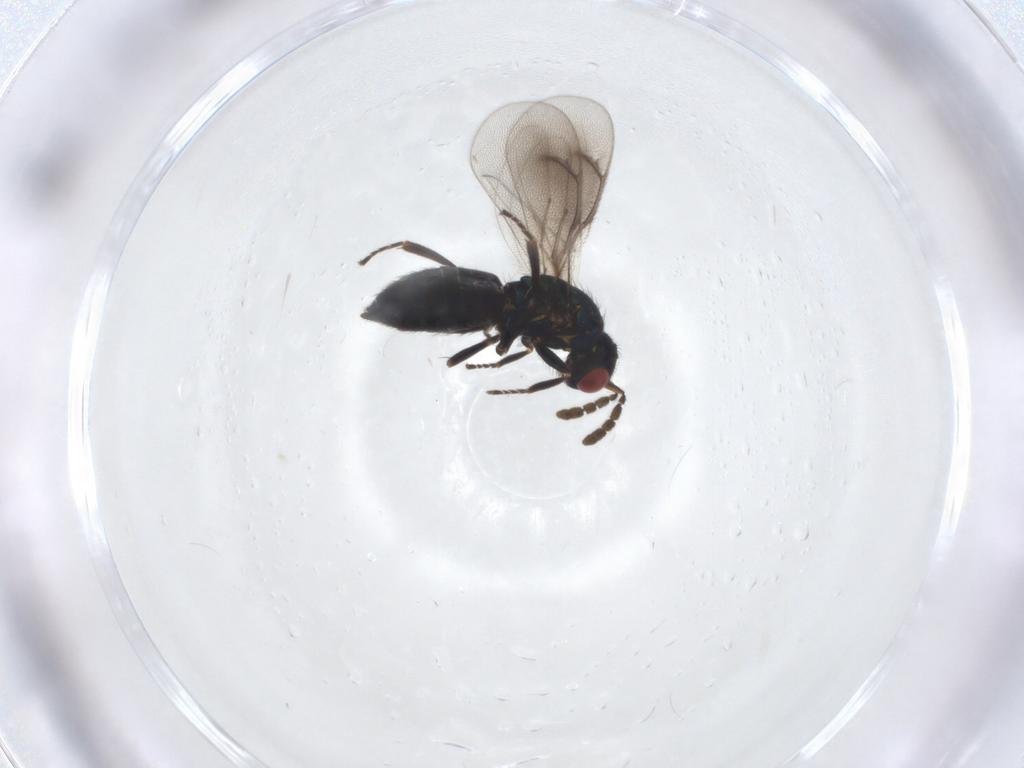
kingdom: Animalia
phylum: Arthropoda
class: Insecta
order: Hymenoptera
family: Eulophidae
